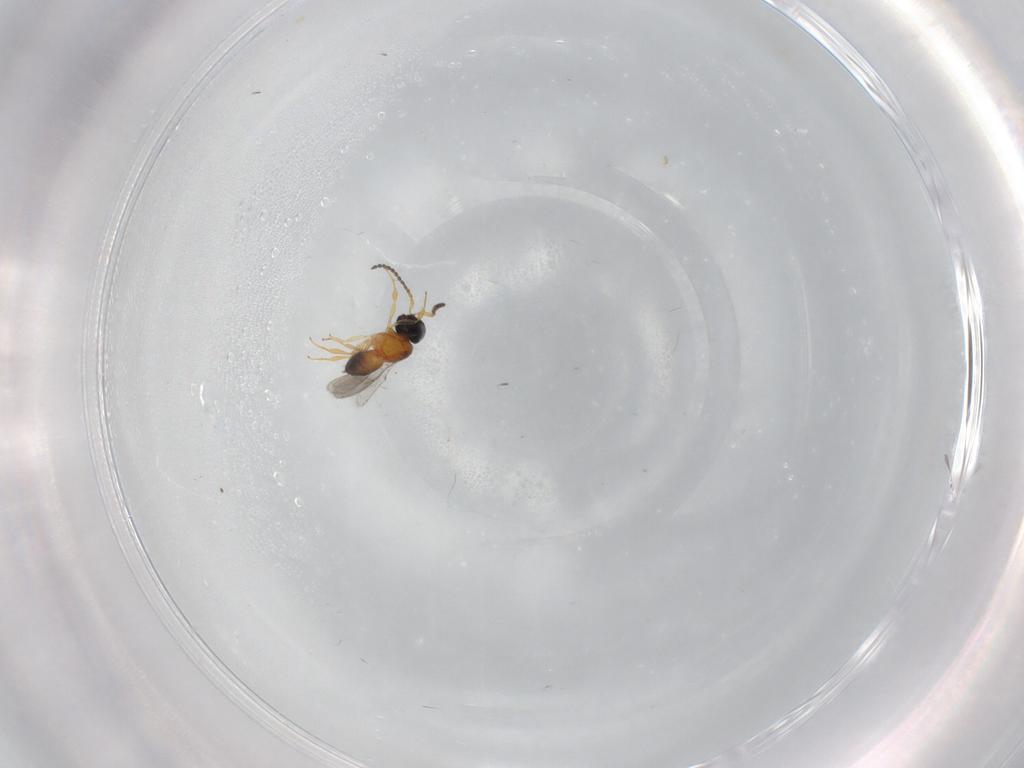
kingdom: Animalia
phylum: Arthropoda
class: Insecta
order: Hymenoptera
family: Scelionidae
